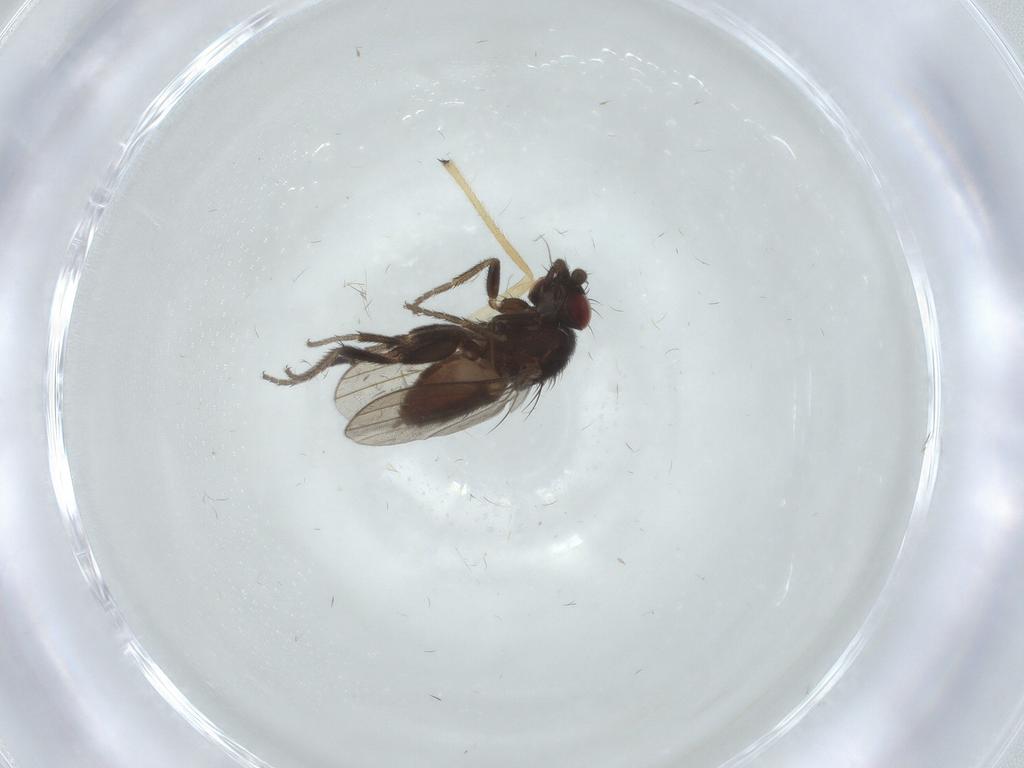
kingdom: Animalia
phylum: Arthropoda
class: Insecta
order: Diptera
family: Milichiidae
